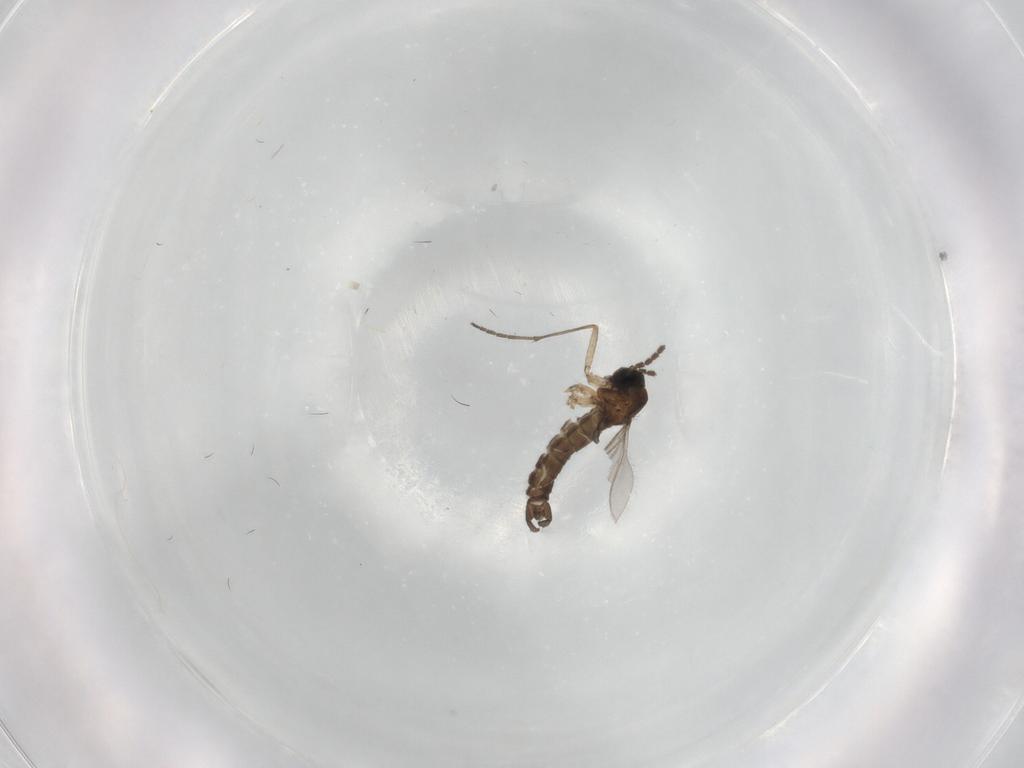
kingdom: Animalia
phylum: Arthropoda
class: Insecta
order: Diptera
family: Sciaridae
